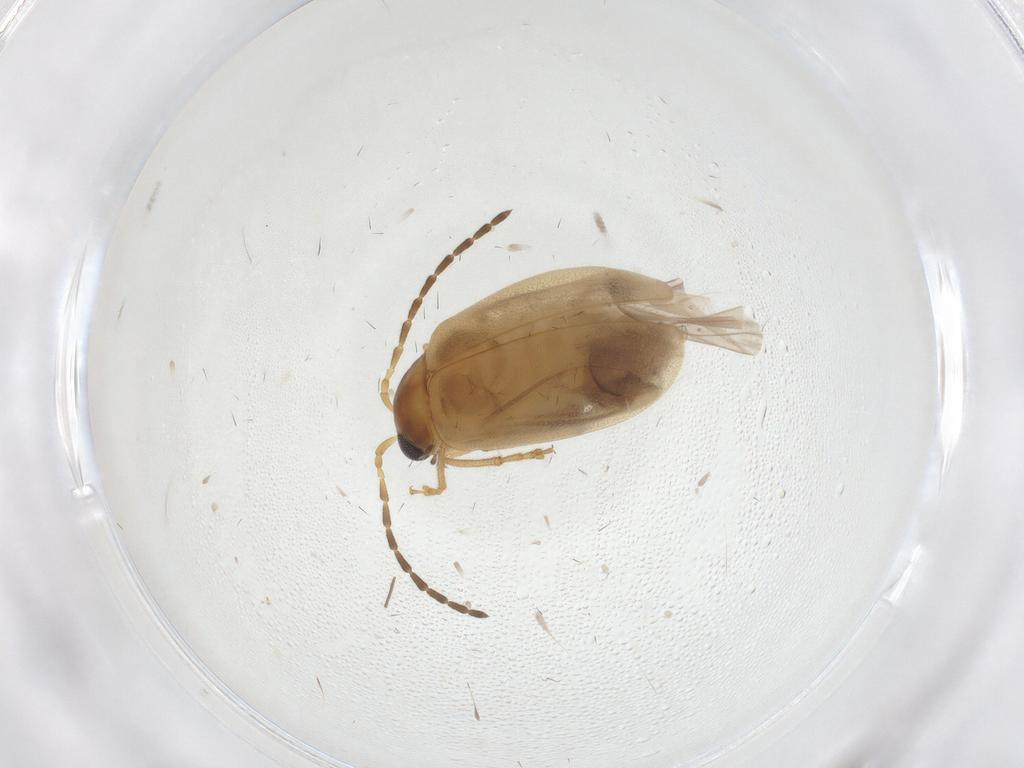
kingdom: Animalia
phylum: Arthropoda
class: Insecta
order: Coleoptera
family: Chrysomelidae
